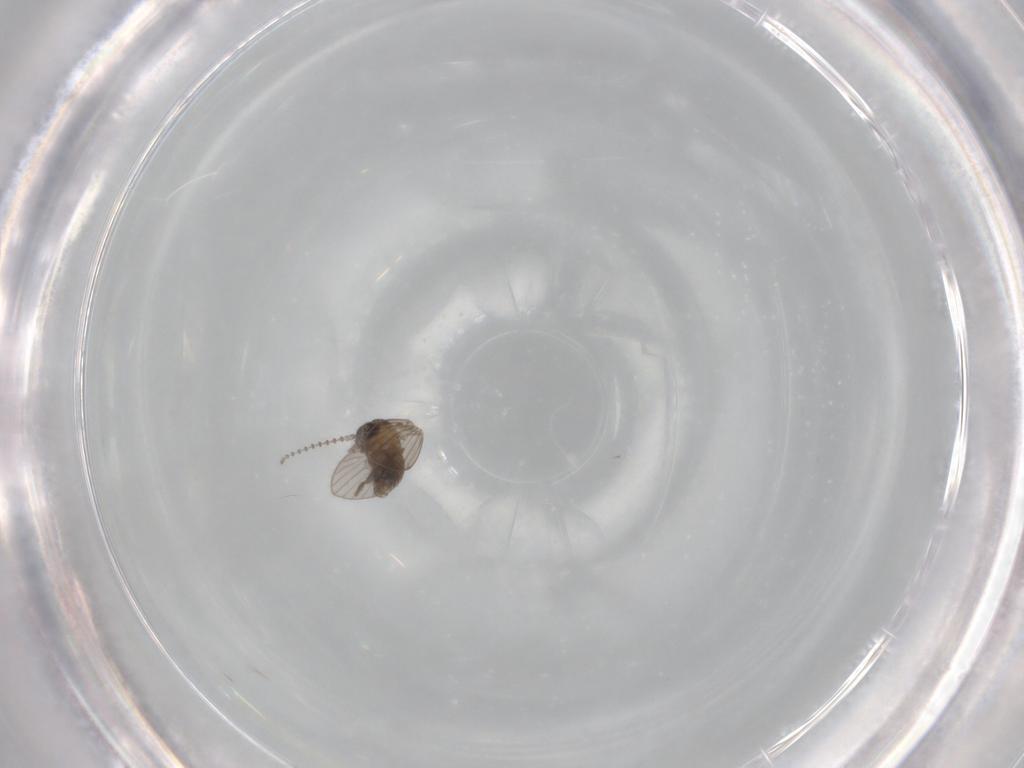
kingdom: Animalia
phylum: Arthropoda
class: Insecta
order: Diptera
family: Psychodidae
